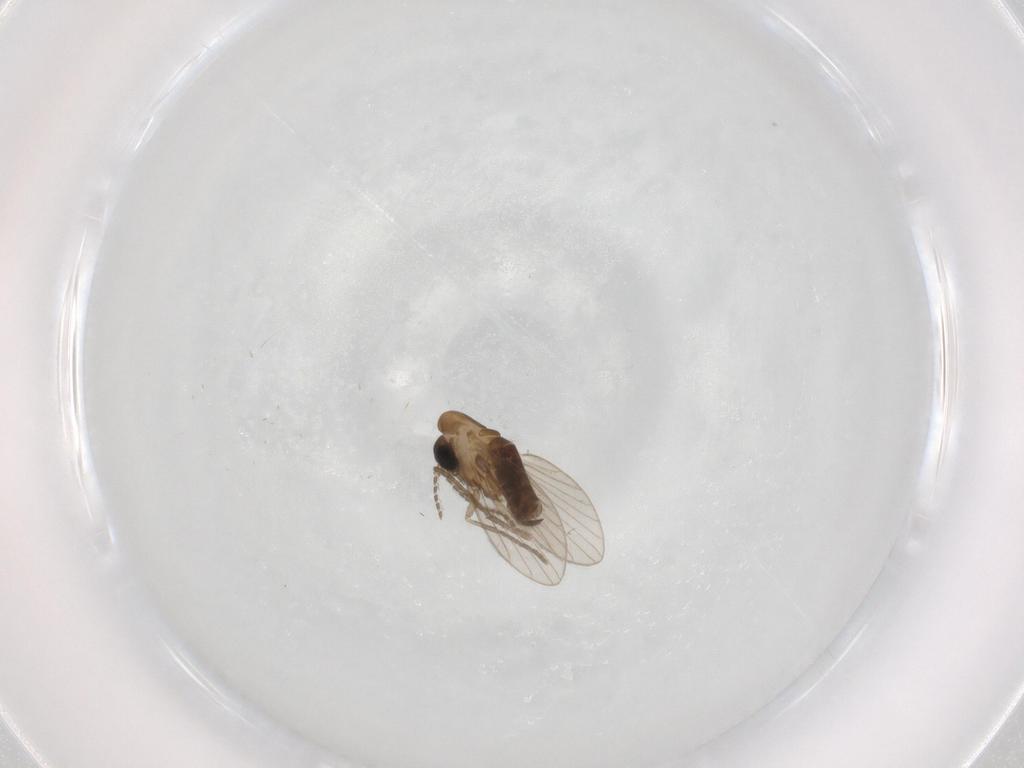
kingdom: Animalia
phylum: Arthropoda
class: Insecta
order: Diptera
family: Psychodidae
